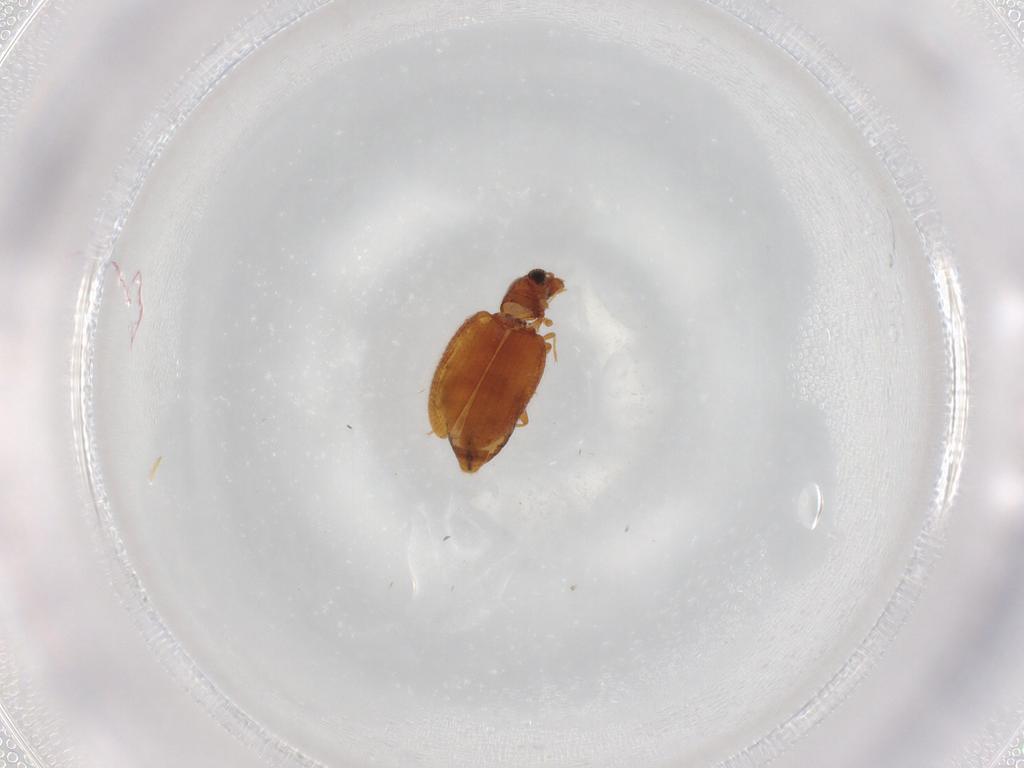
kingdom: Animalia
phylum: Arthropoda
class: Insecta
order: Coleoptera
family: Latridiidae
